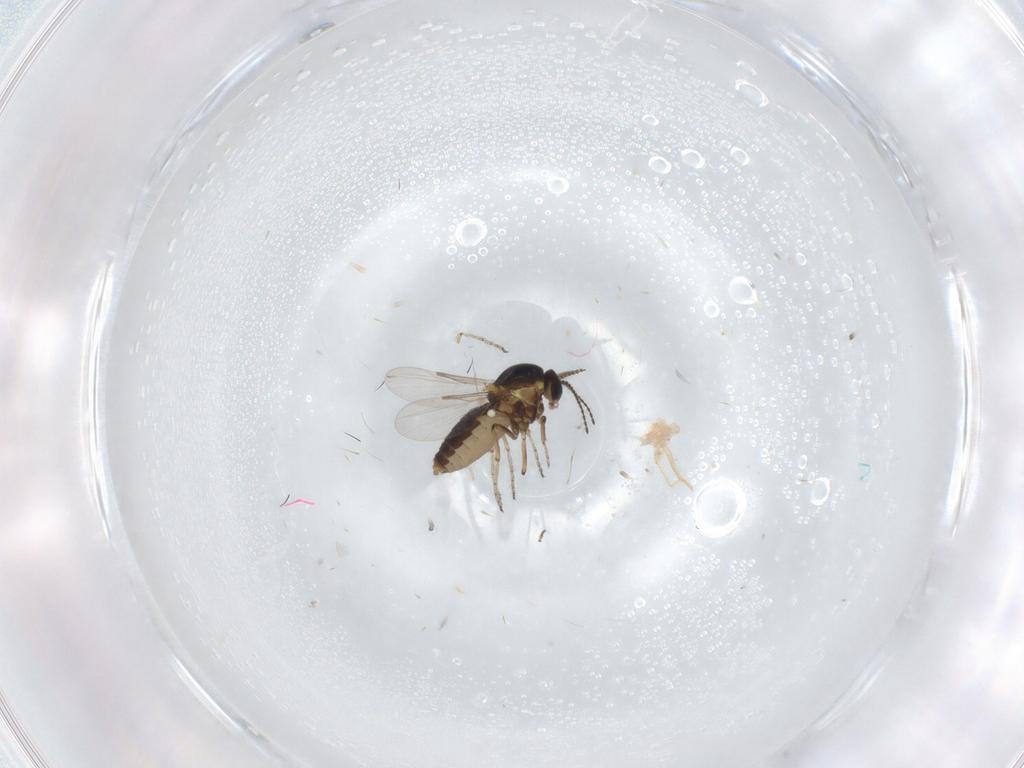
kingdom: Animalia
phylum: Arthropoda
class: Insecta
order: Diptera
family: Ceratopogonidae
